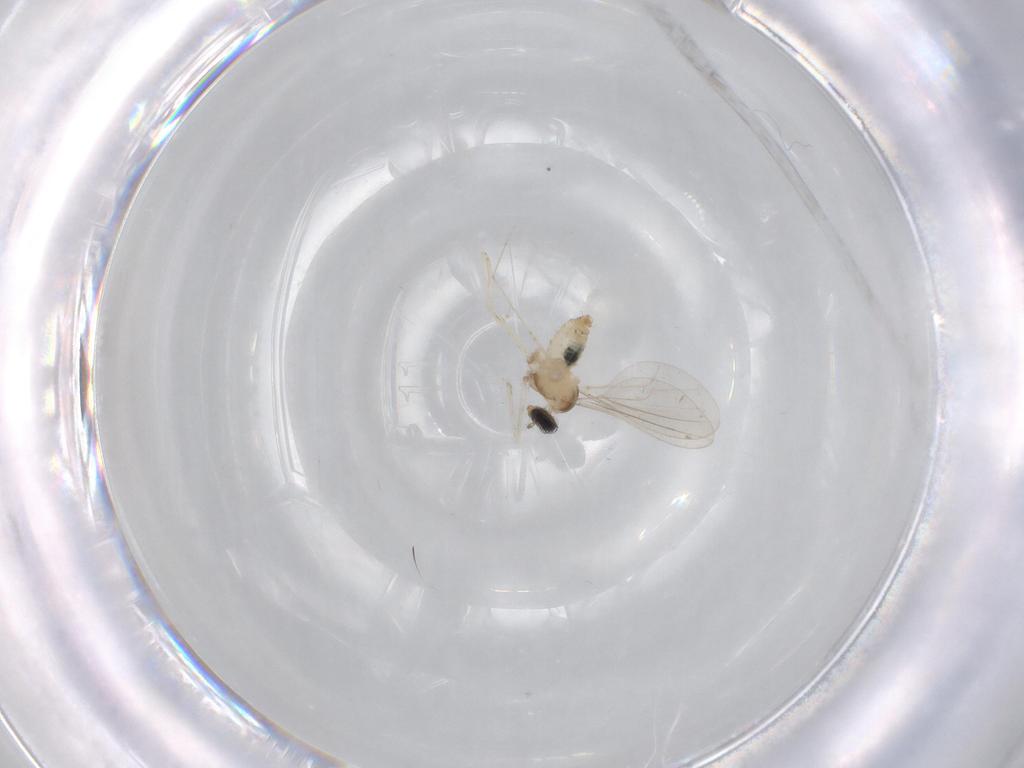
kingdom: Animalia
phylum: Arthropoda
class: Insecta
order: Diptera
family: Cecidomyiidae
